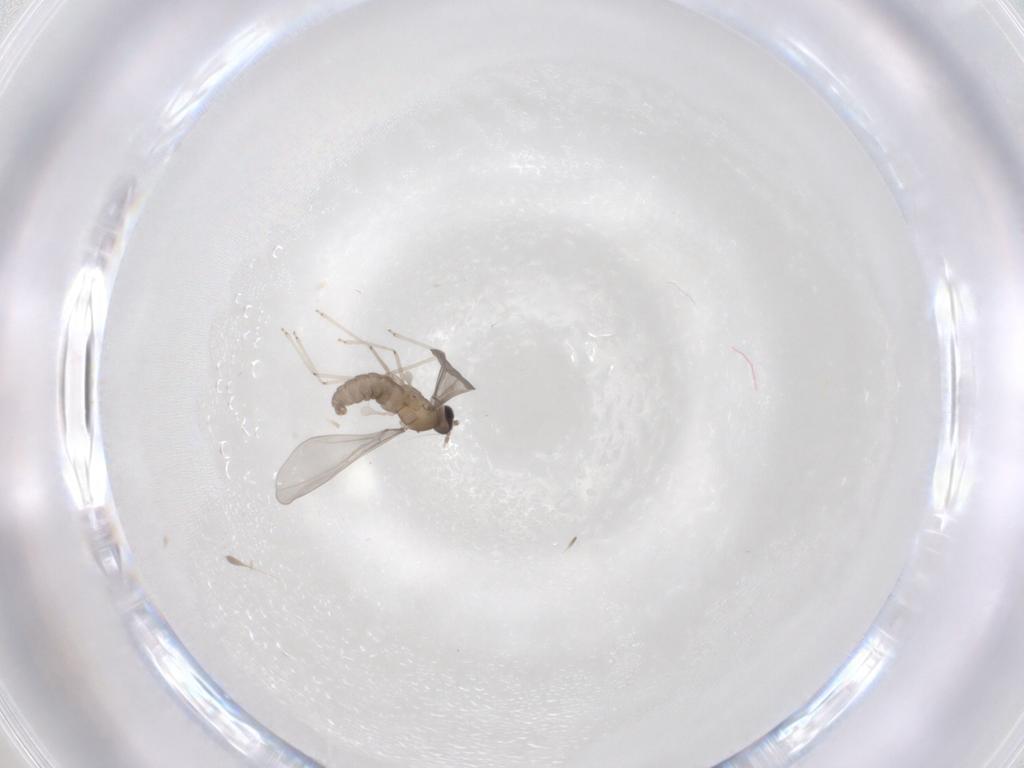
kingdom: Animalia
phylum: Arthropoda
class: Insecta
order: Diptera
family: Cecidomyiidae
